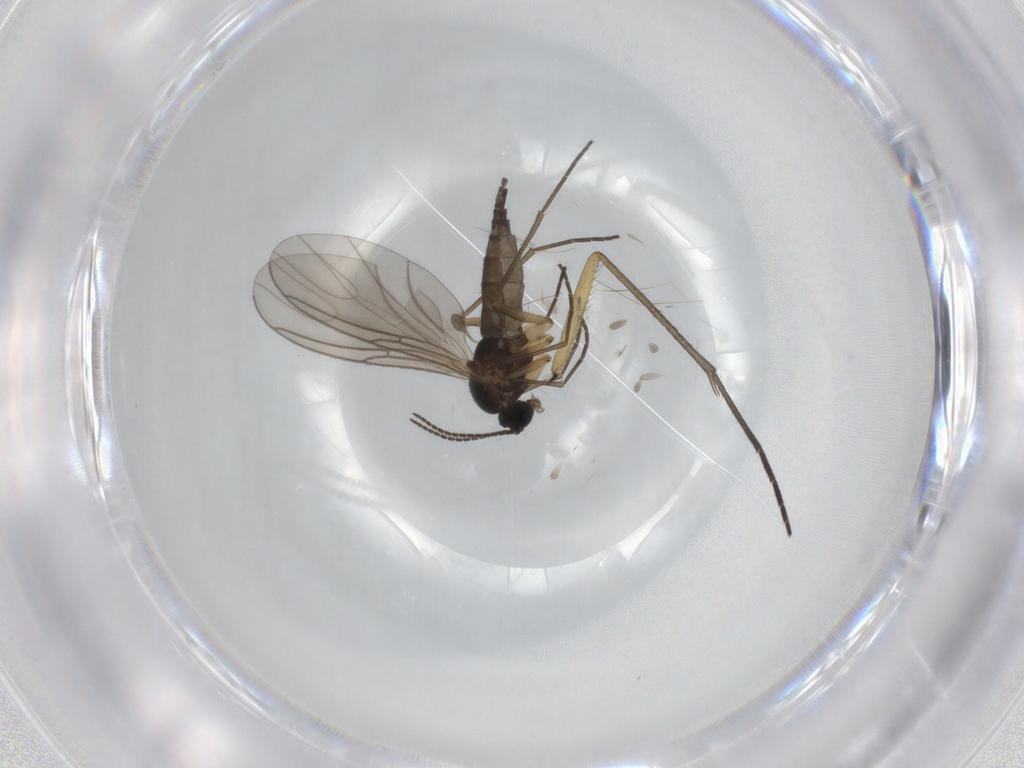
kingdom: Animalia
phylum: Arthropoda
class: Insecta
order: Diptera
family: Sciaridae
